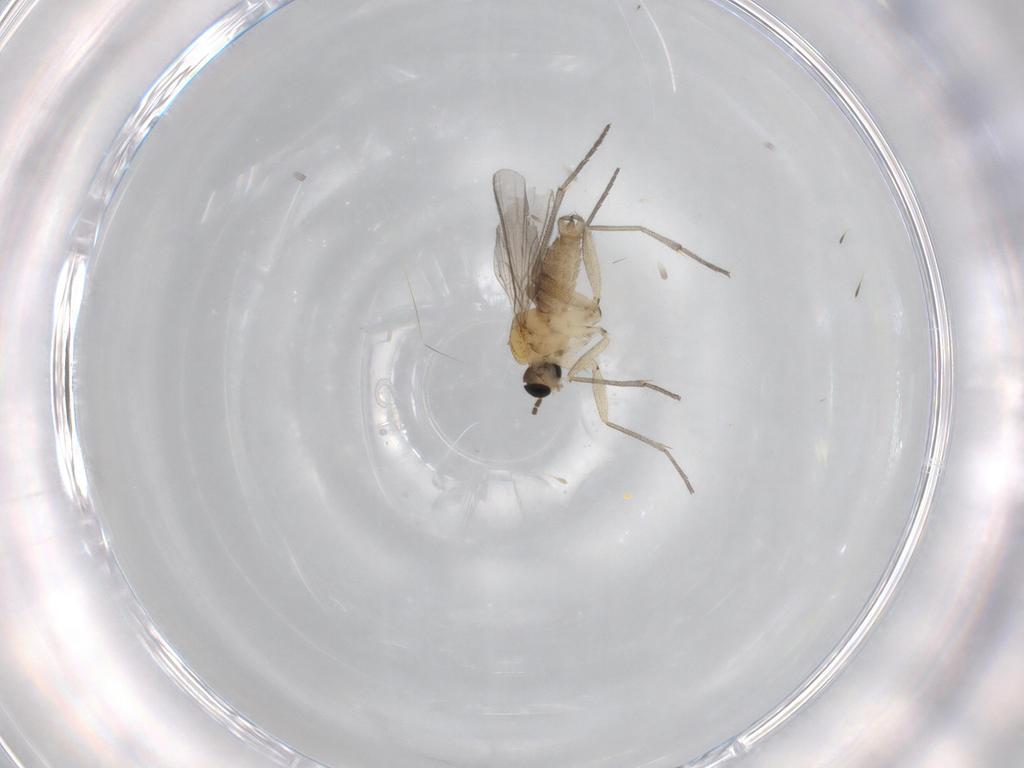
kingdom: Animalia
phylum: Arthropoda
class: Insecta
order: Diptera
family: Sciaridae
